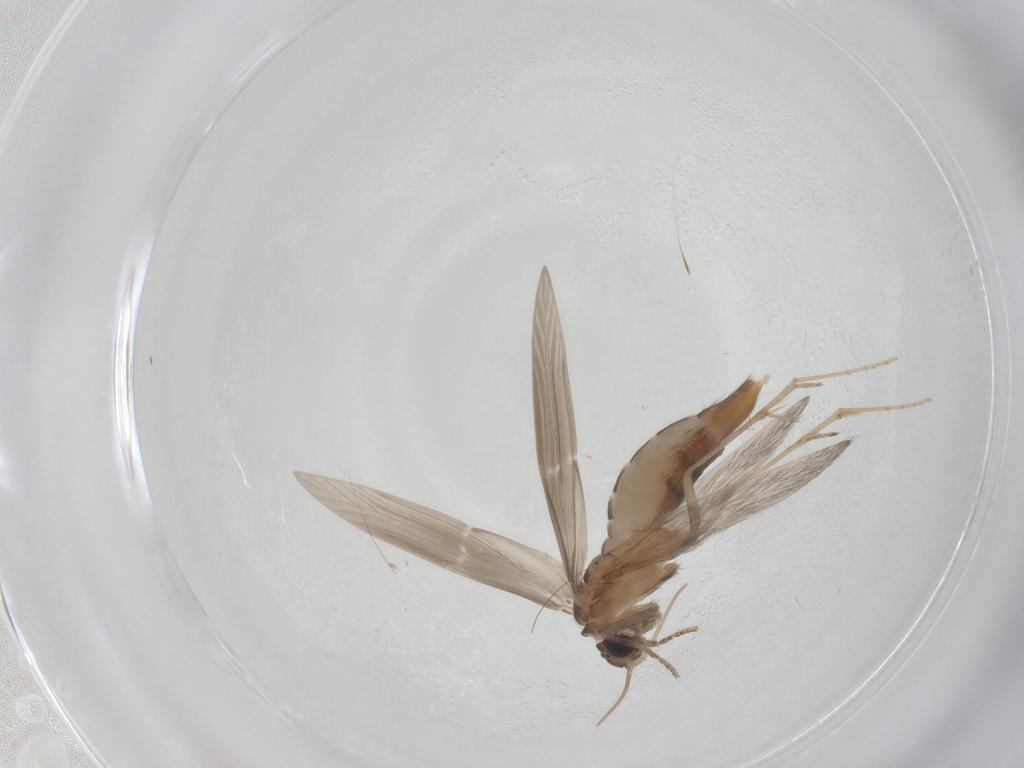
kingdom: Animalia
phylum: Arthropoda
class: Insecta
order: Trichoptera
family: Hydroptilidae
